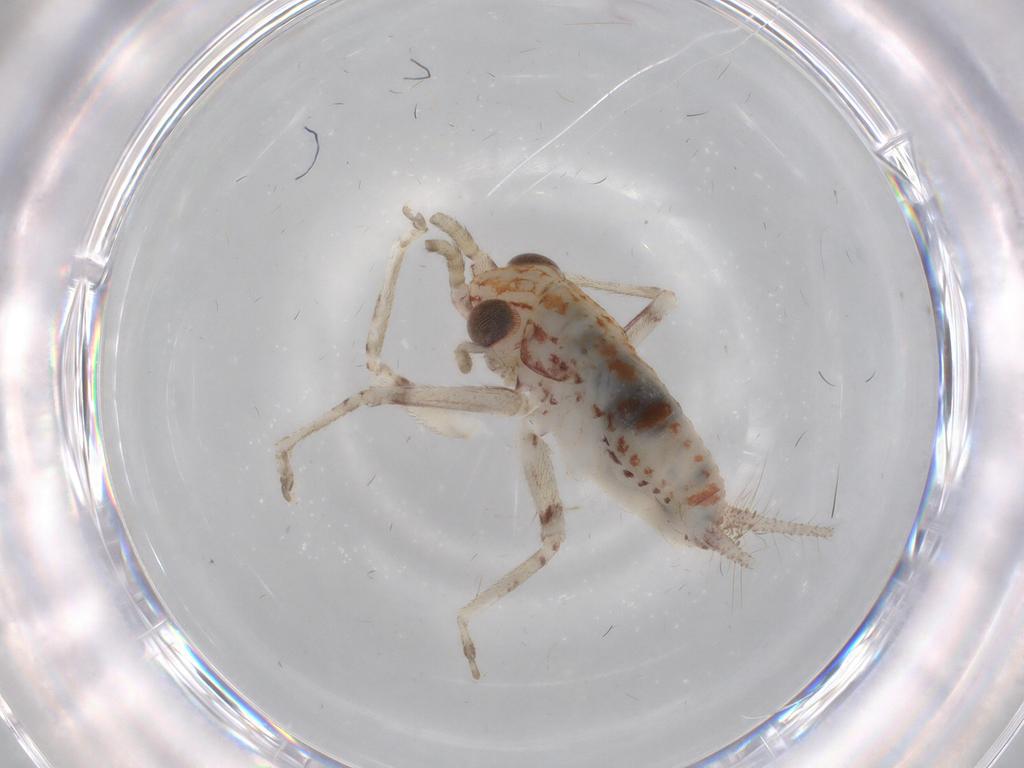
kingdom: Animalia
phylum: Arthropoda
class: Insecta
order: Orthoptera
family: Trigonidiidae
